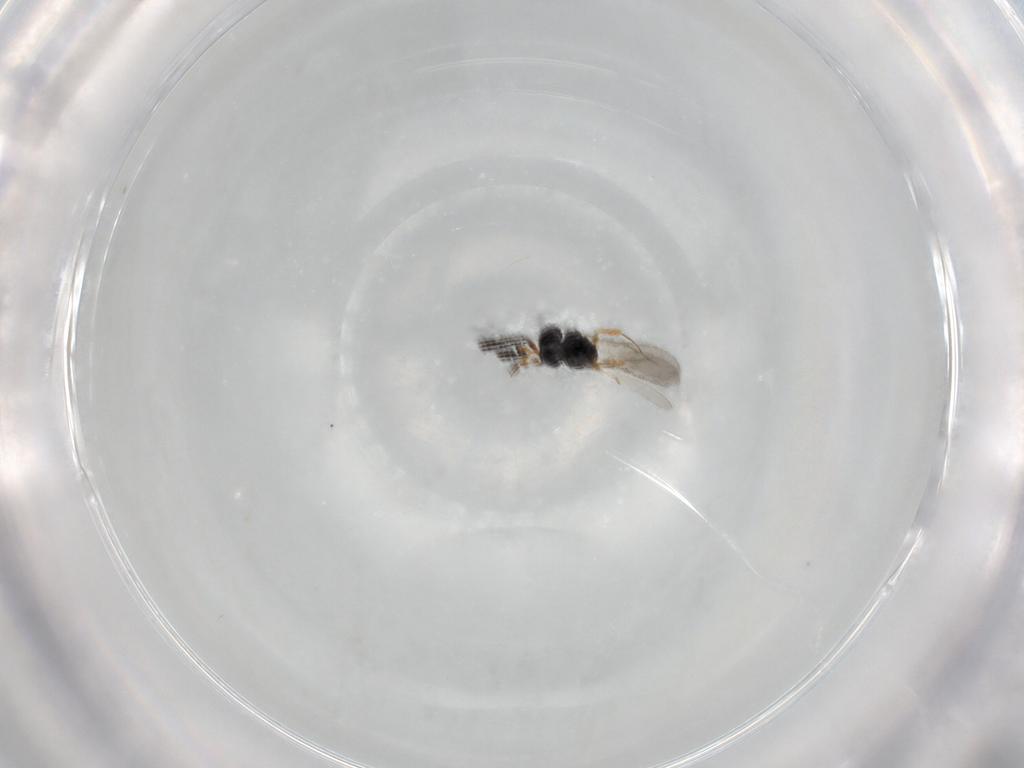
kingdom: Animalia
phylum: Arthropoda
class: Insecta
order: Hymenoptera
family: Scelionidae
